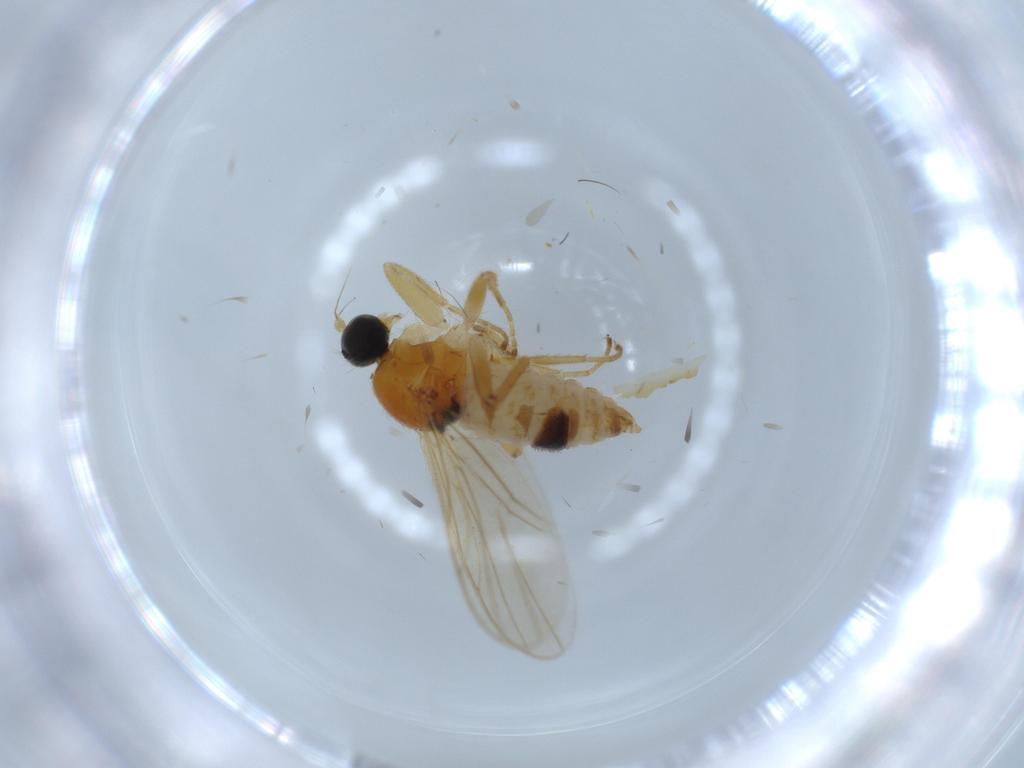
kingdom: Animalia
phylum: Arthropoda
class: Insecta
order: Diptera
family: Hybotidae
